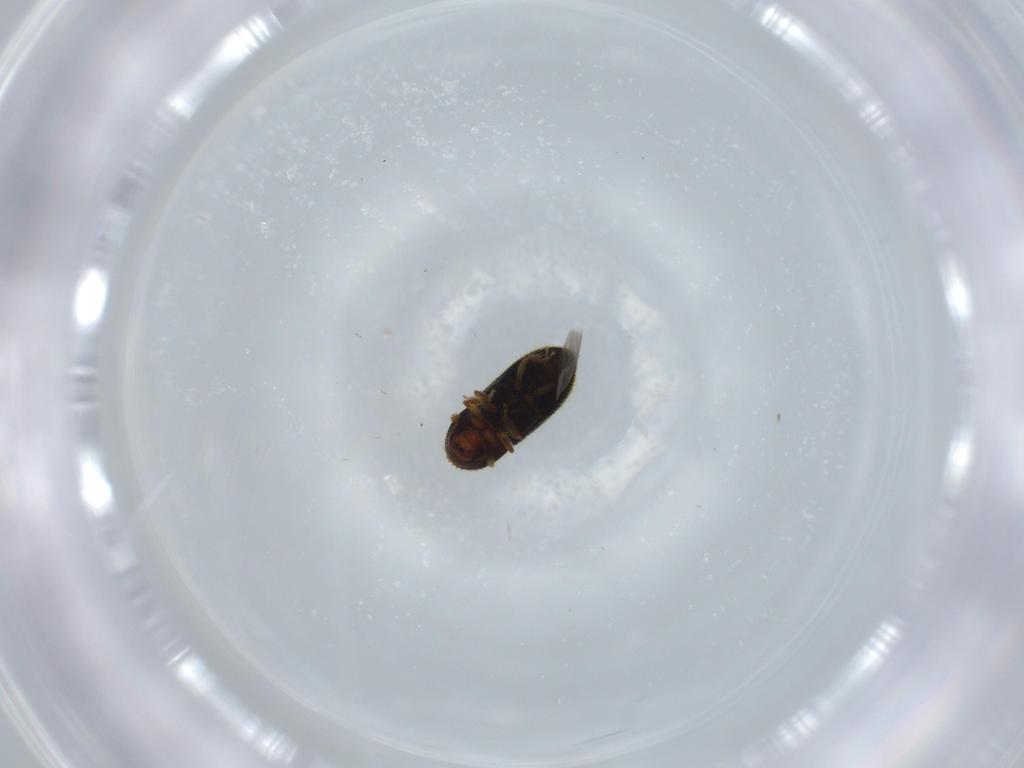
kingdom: Animalia
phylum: Arthropoda
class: Insecta
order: Coleoptera
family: Curculionidae
